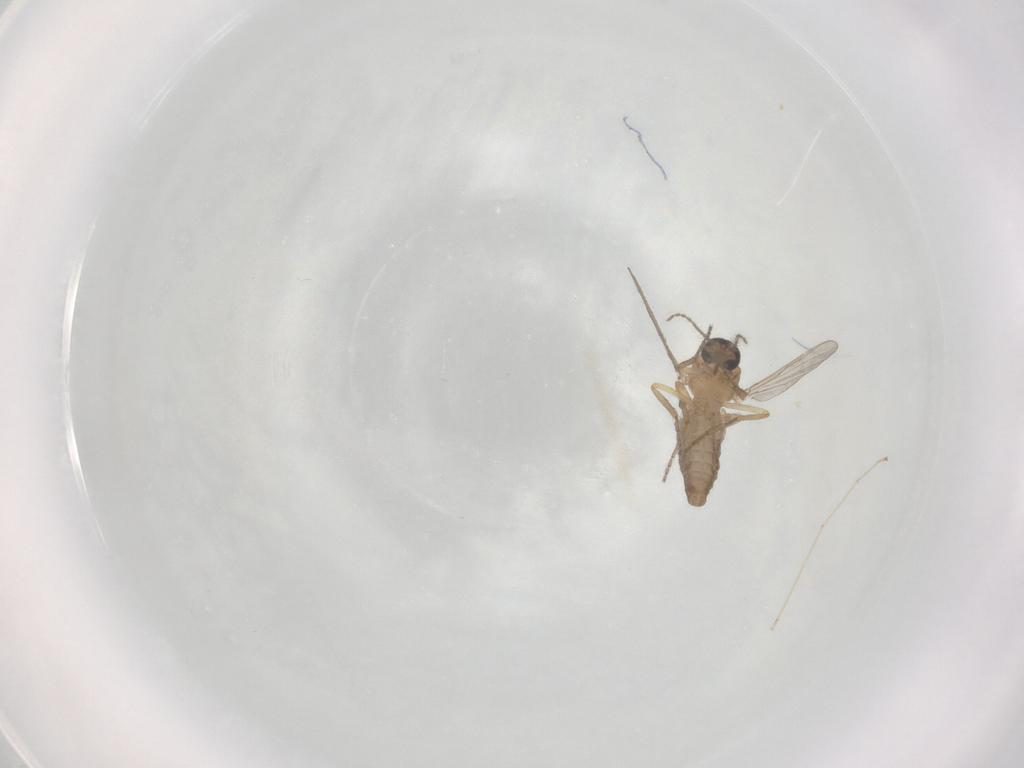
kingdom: Animalia
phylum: Arthropoda
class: Insecta
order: Diptera
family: Ceratopogonidae
